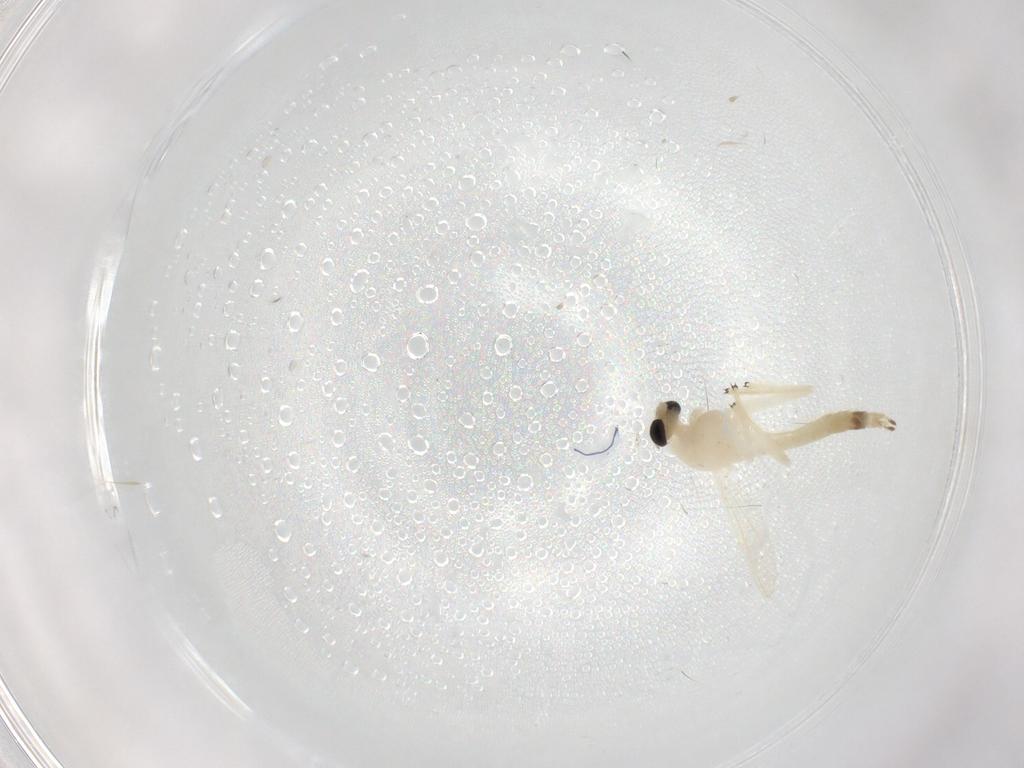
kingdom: Animalia
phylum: Arthropoda
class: Insecta
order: Diptera
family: Chironomidae
